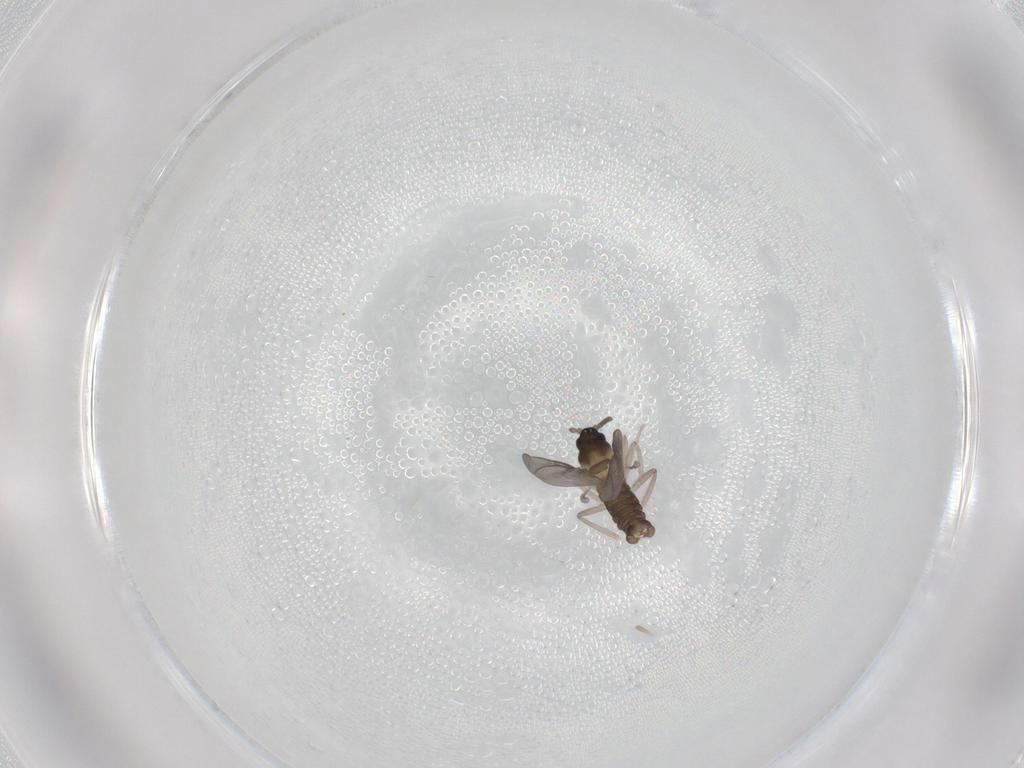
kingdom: Animalia
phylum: Arthropoda
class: Insecta
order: Diptera
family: Cecidomyiidae
